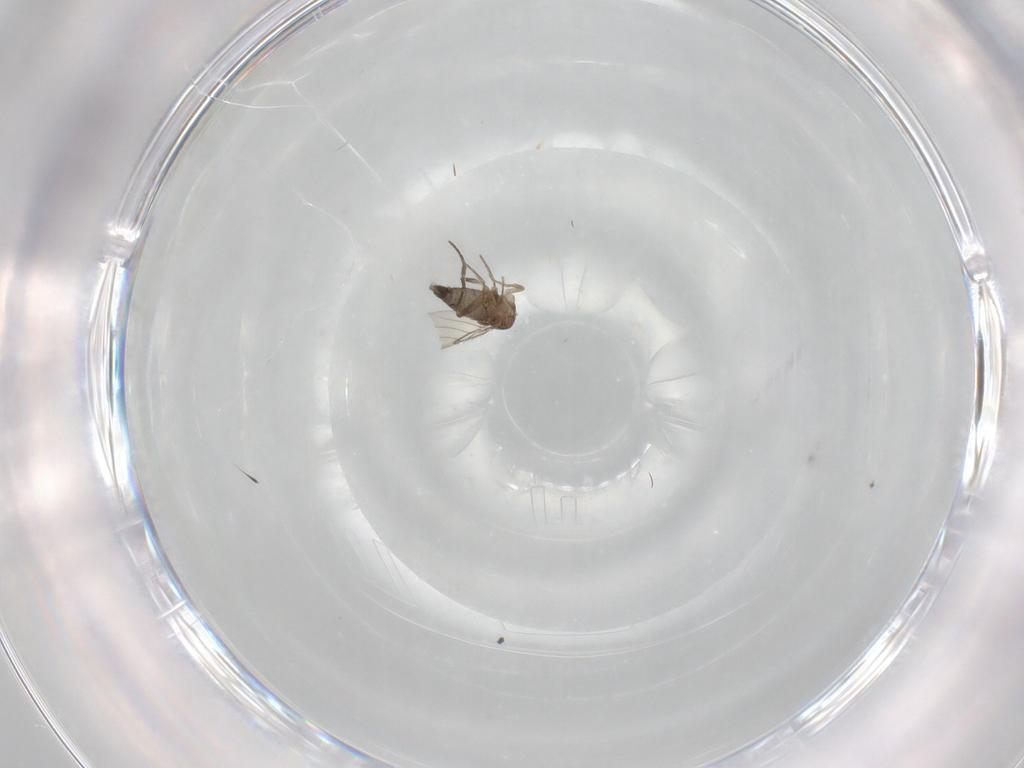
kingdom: Animalia
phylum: Arthropoda
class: Insecta
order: Diptera
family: Phoridae
